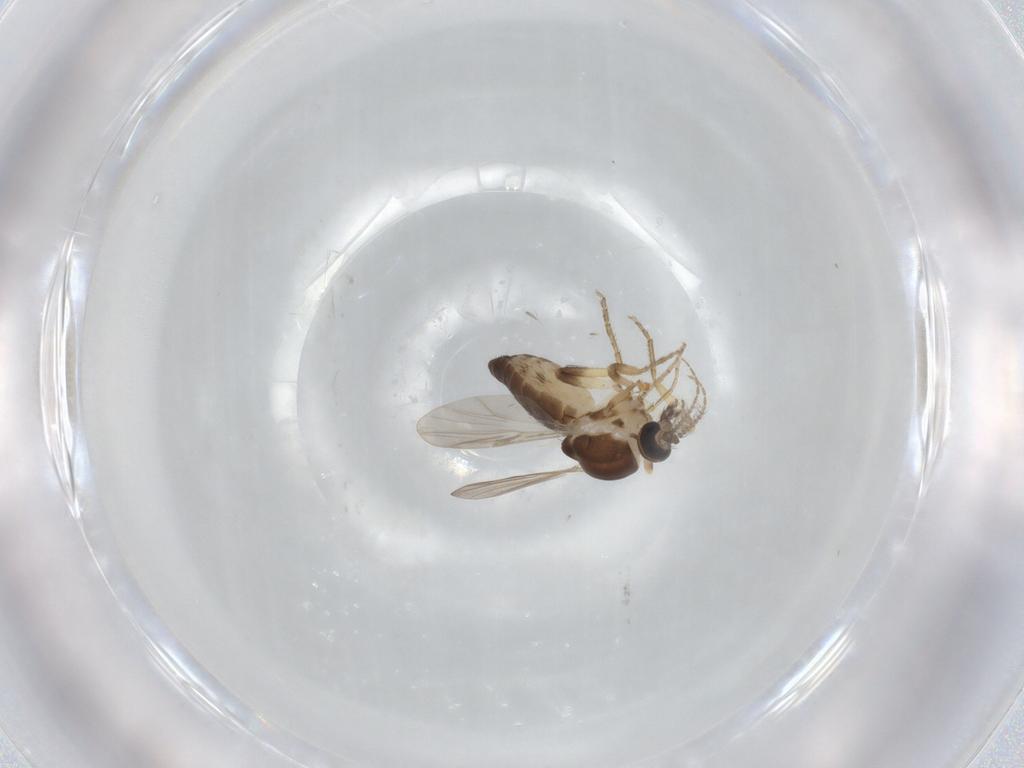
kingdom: Animalia
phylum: Arthropoda
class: Insecta
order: Diptera
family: Ceratopogonidae
